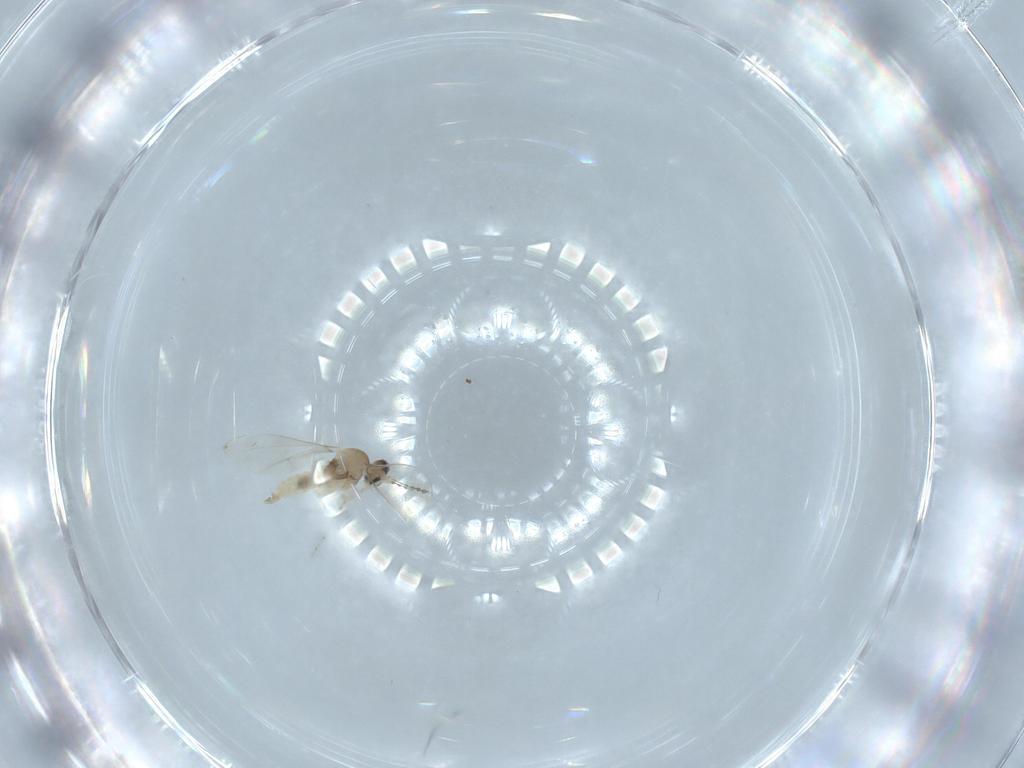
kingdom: Animalia
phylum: Arthropoda
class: Insecta
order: Diptera
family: Cecidomyiidae
